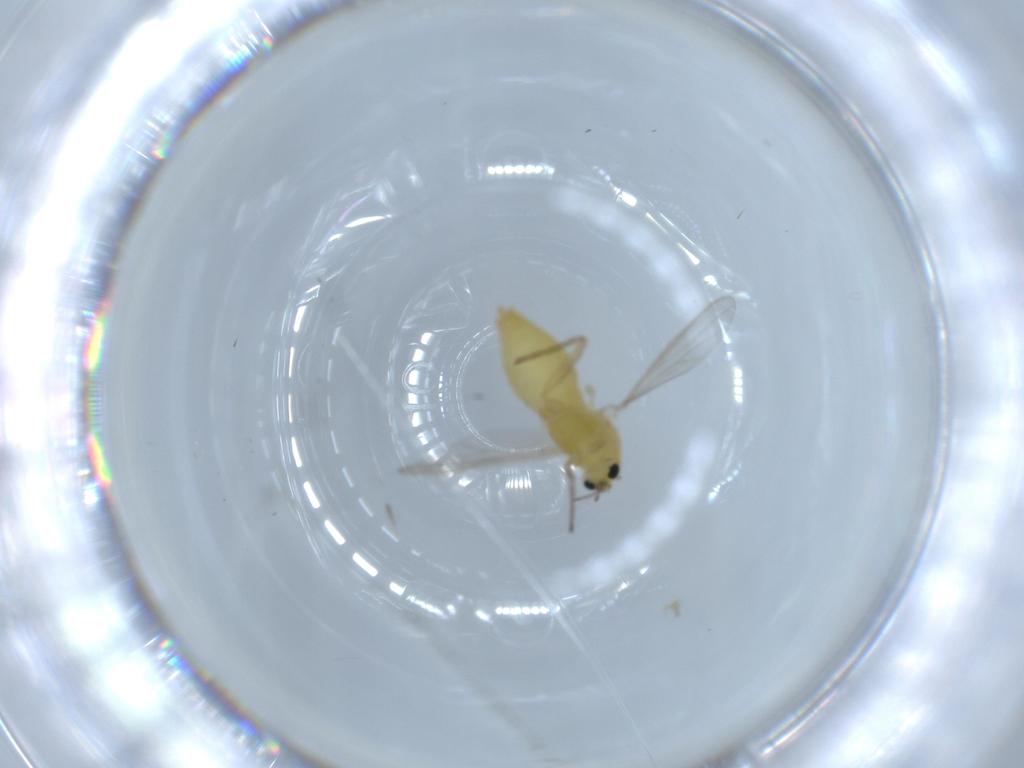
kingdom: Animalia
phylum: Arthropoda
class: Insecta
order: Diptera
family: Chironomidae
